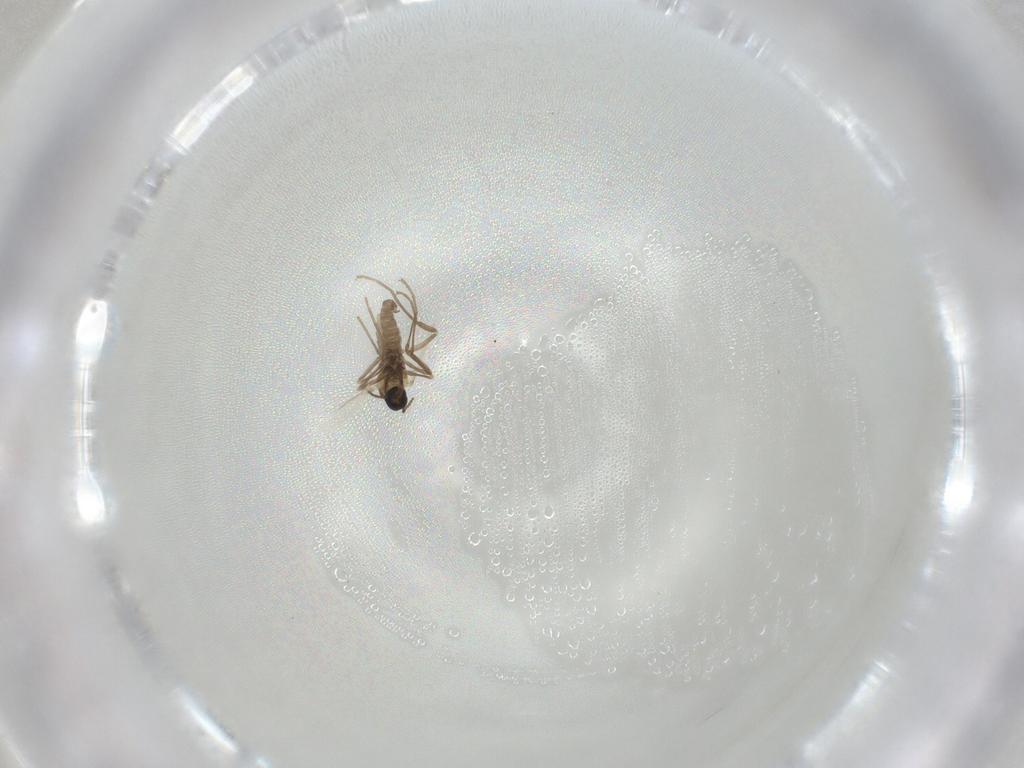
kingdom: Animalia
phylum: Arthropoda
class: Insecta
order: Diptera
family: Cecidomyiidae
